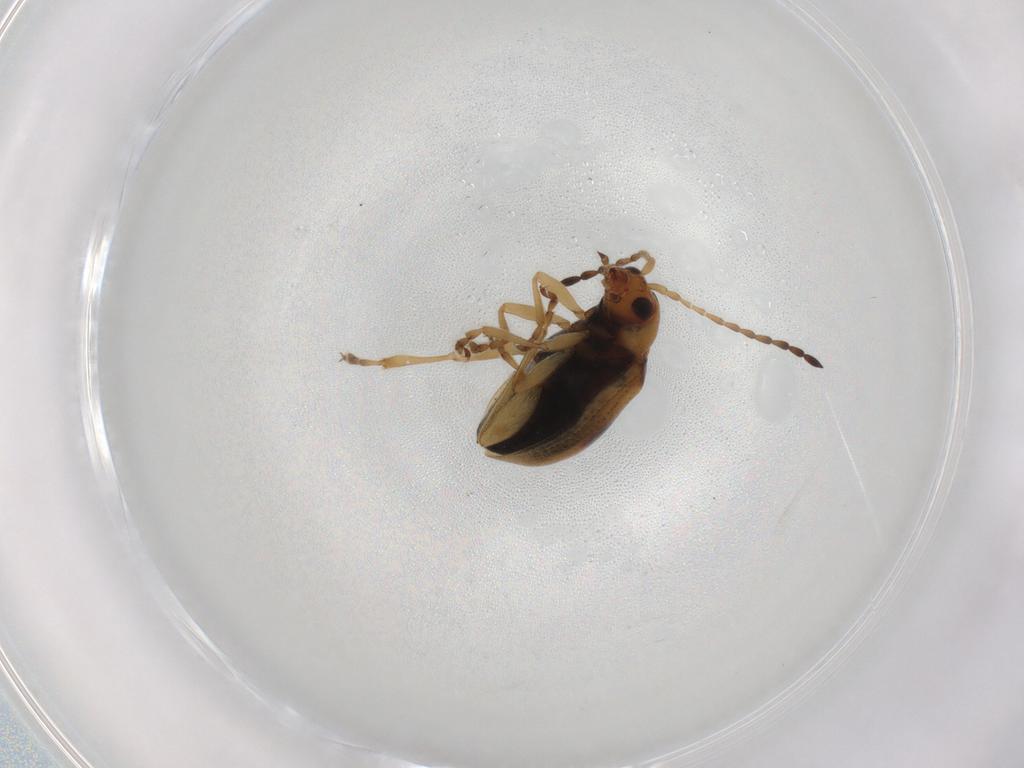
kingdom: Animalia
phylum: Arthropoda
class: Insecta
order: Coleoptera
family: Chrysomelidae
